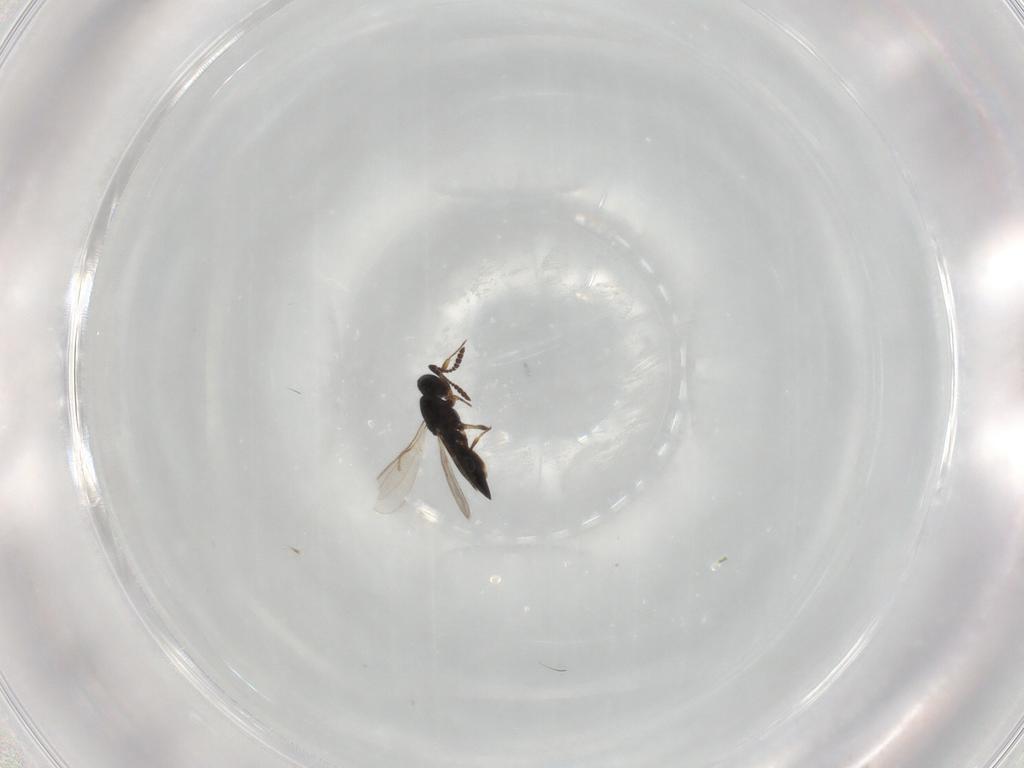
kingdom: Animalia
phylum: Arthropoda
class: Insecta
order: Hymenoptera
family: Scelionidae
